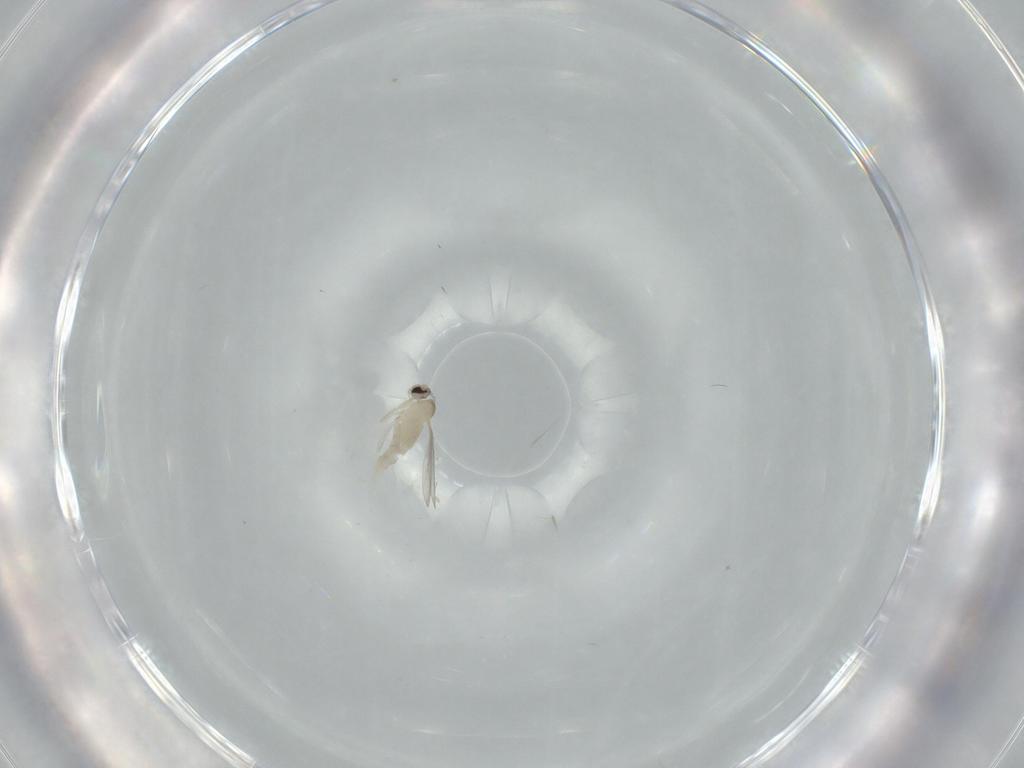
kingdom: Animalia
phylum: Arthropoda
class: Insecta
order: Diptera
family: Cecidomyiidae
